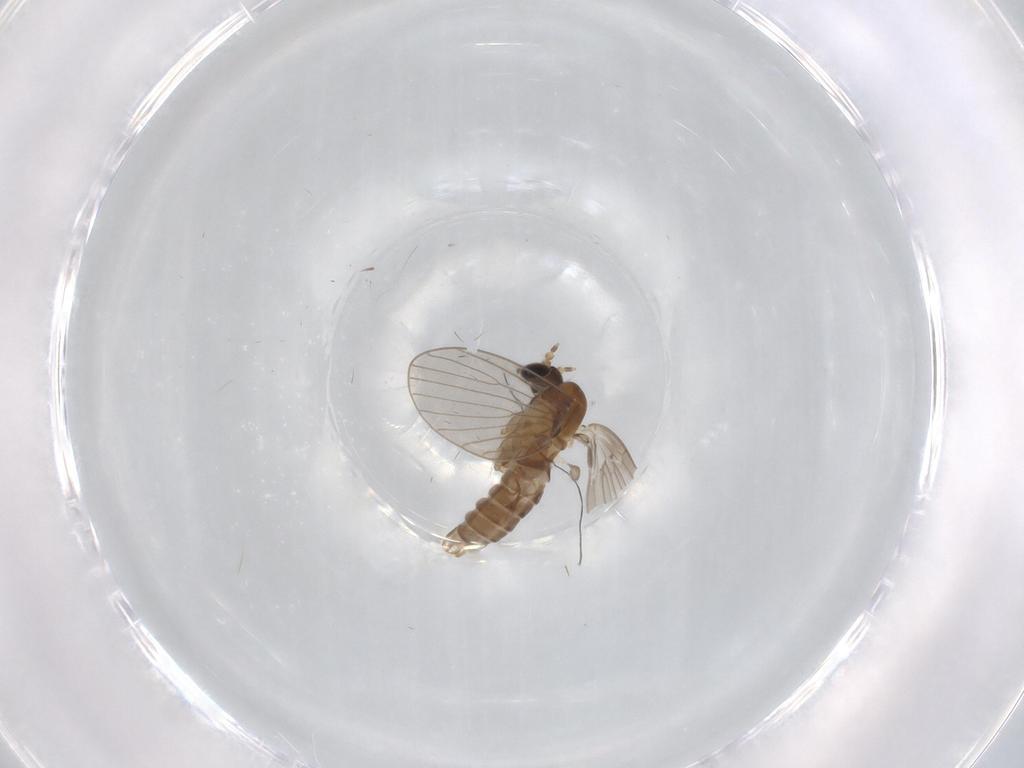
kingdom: Animalia
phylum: Arthropoda
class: Insecta
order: Diptera
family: Psychodidae
